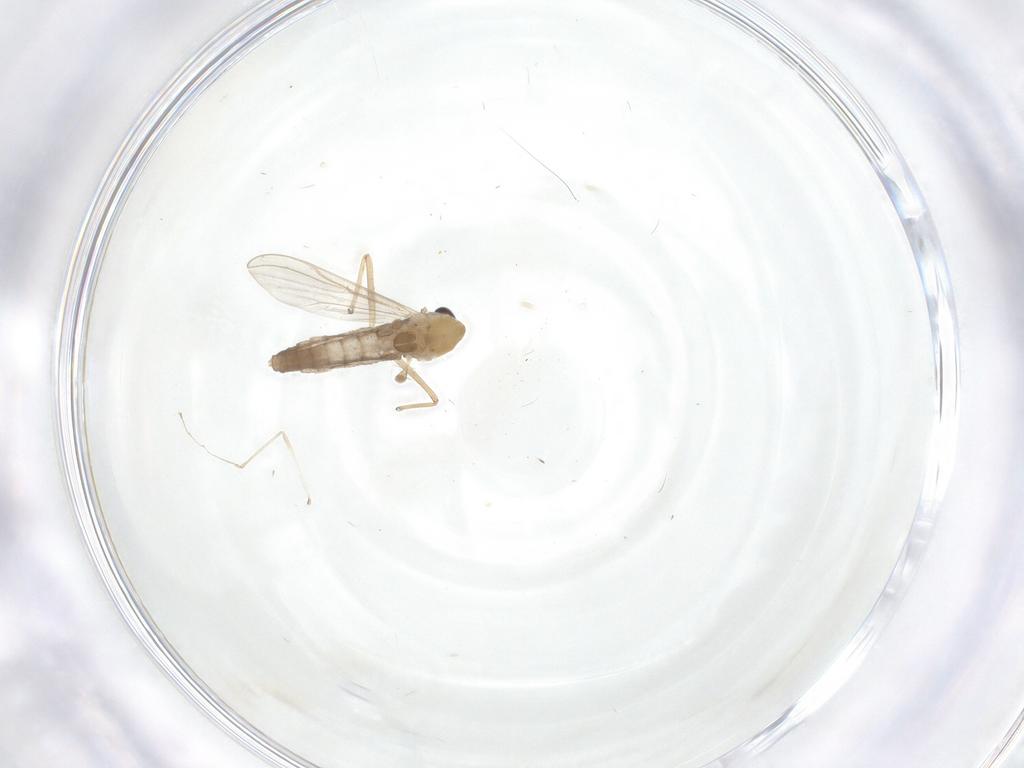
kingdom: Animalia
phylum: Arthropoda
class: Insecta
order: Diptera
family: Chironomidae
